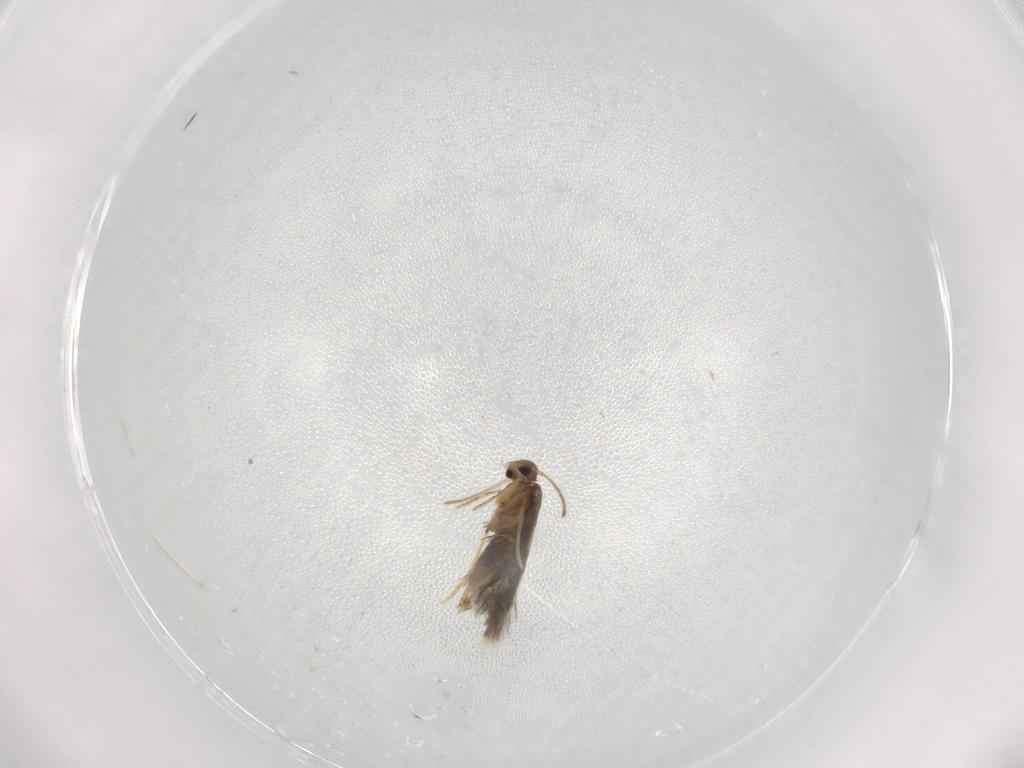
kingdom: Animalia
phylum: Arthropoda
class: Insecta
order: Lepidoptera
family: Heliozelidae
